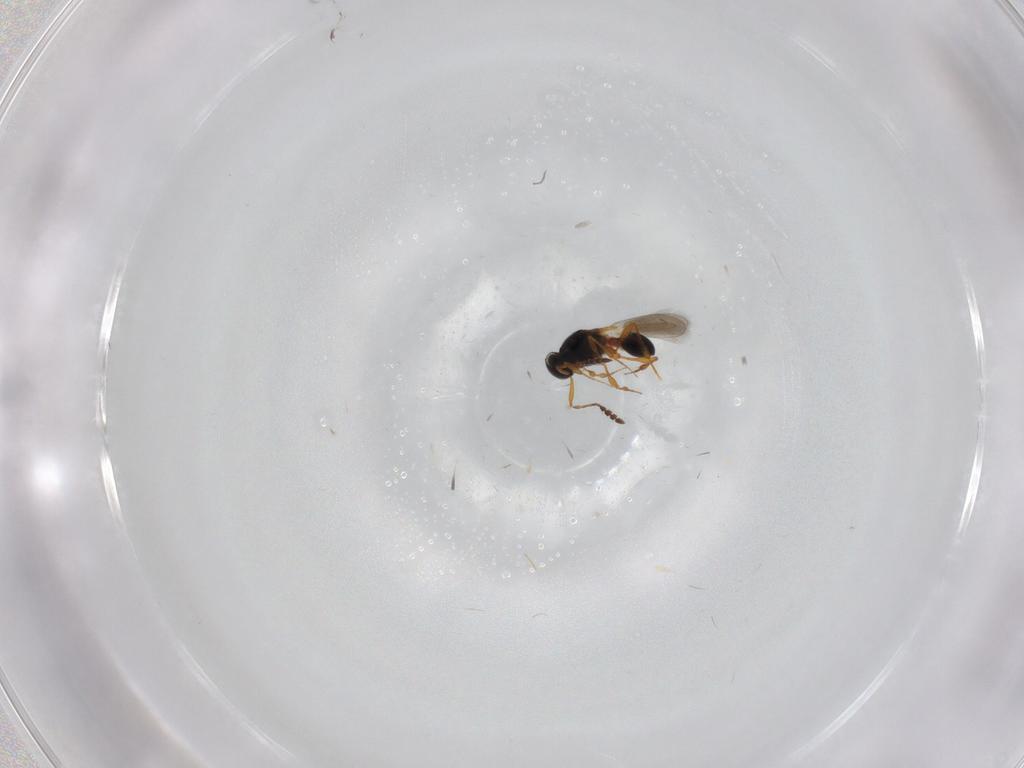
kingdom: Animalia
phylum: Arthropoda
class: Insecta
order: Hymenoptera
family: Platygastridae
